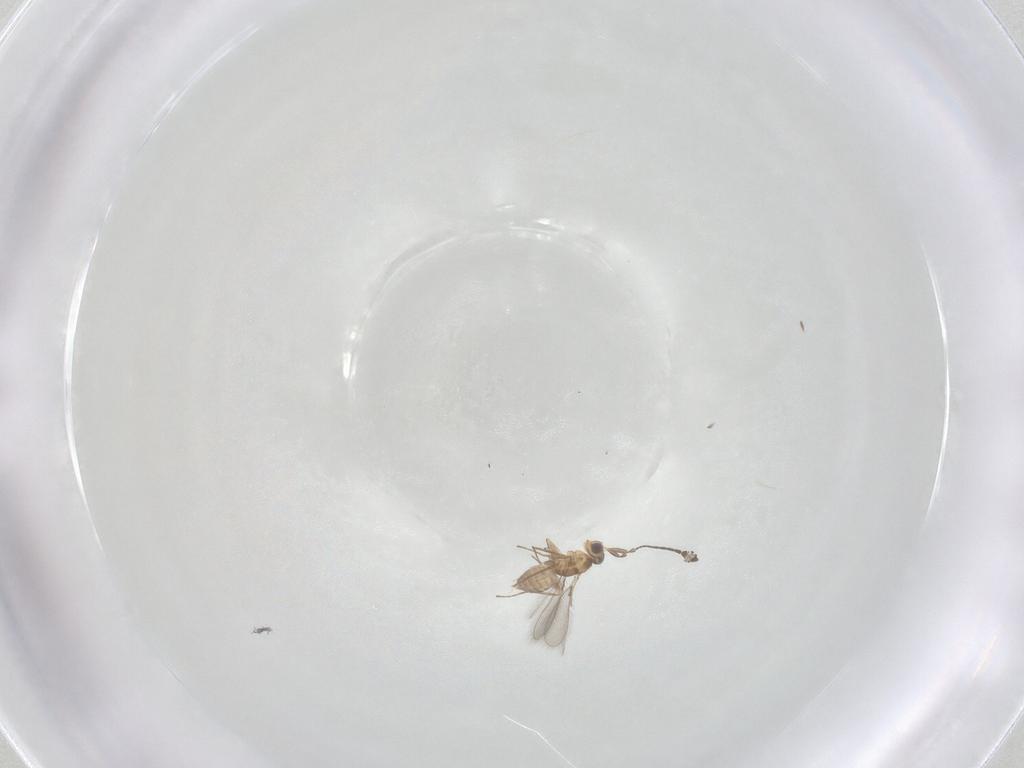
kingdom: Animalia
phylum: Arthropoda
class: Insecta
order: Hymenoptera
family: Mymaridae
